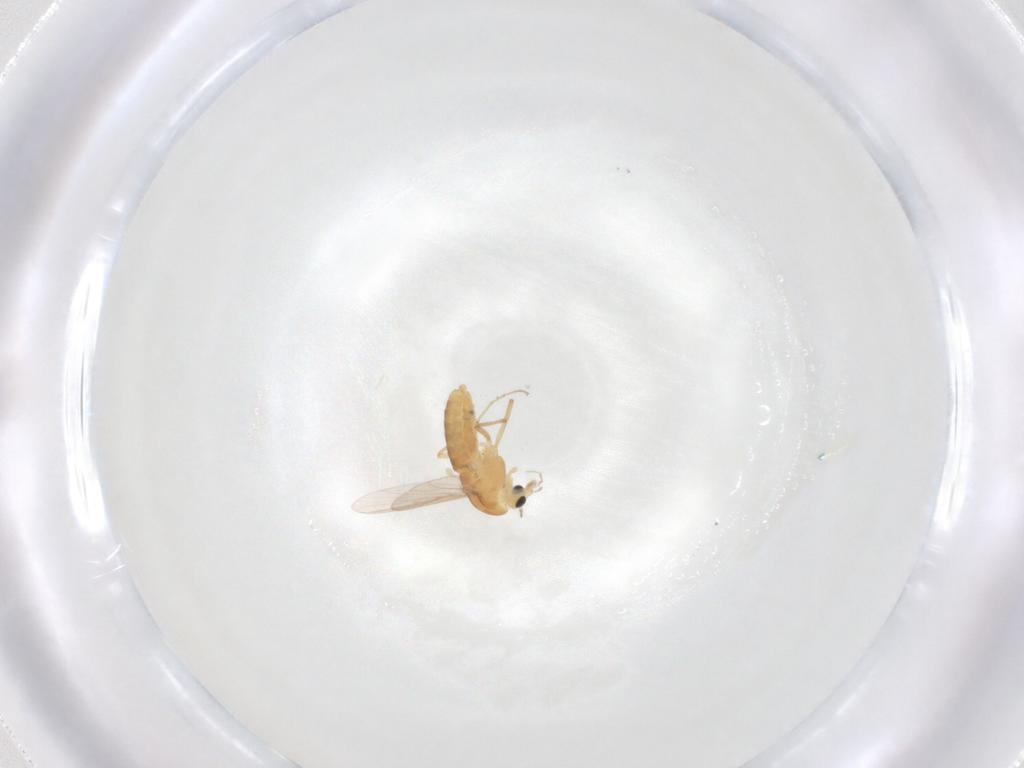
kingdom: Animalia
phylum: Arthropoda
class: Insecta
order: Diptera
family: Chironomidae
